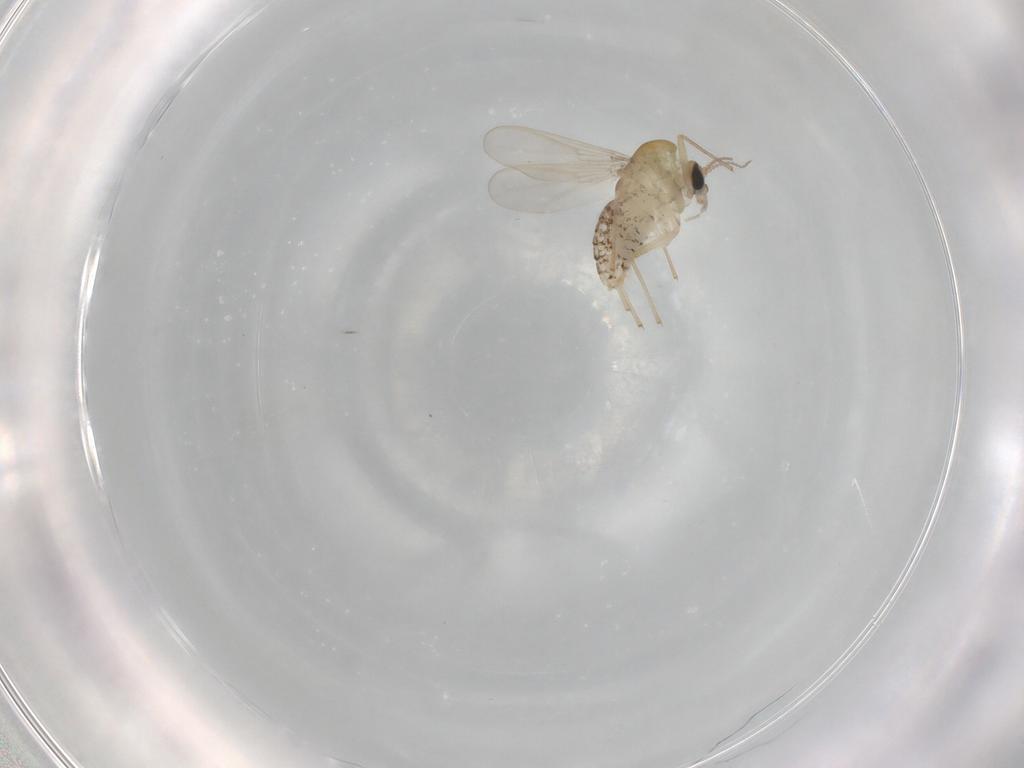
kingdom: Animalia
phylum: Arthropoda
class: Insecta
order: Diptera
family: Chironomidae
